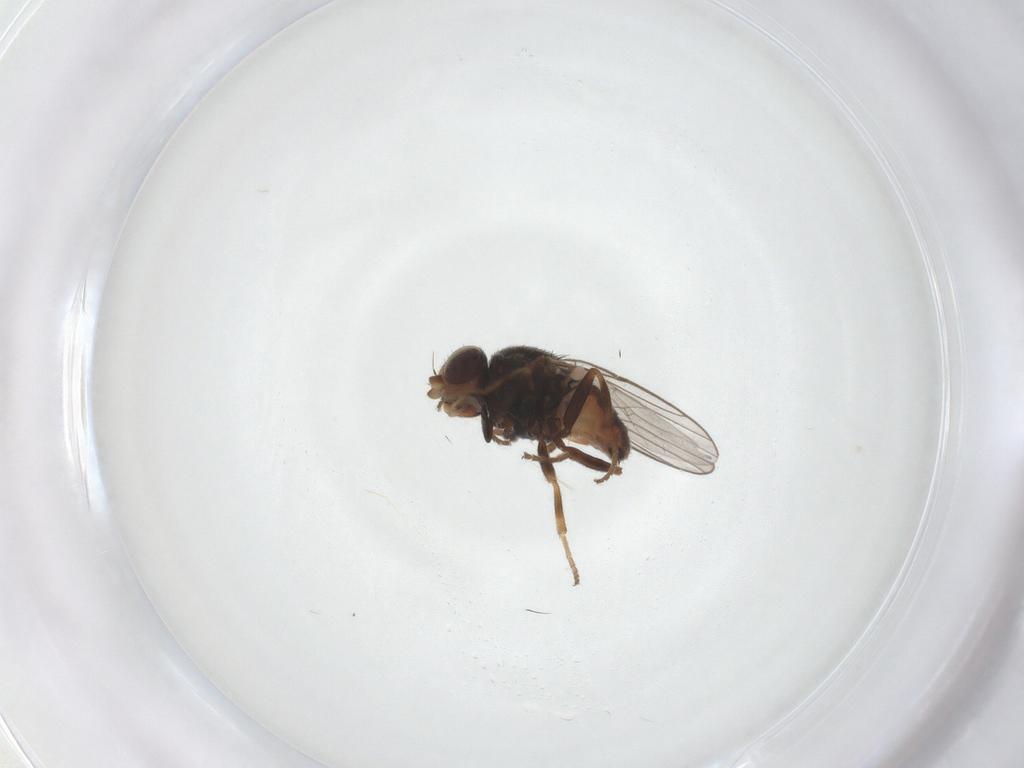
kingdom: Animalia
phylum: Arthropoda
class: Insecta
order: Diptera
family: Chloropidae
